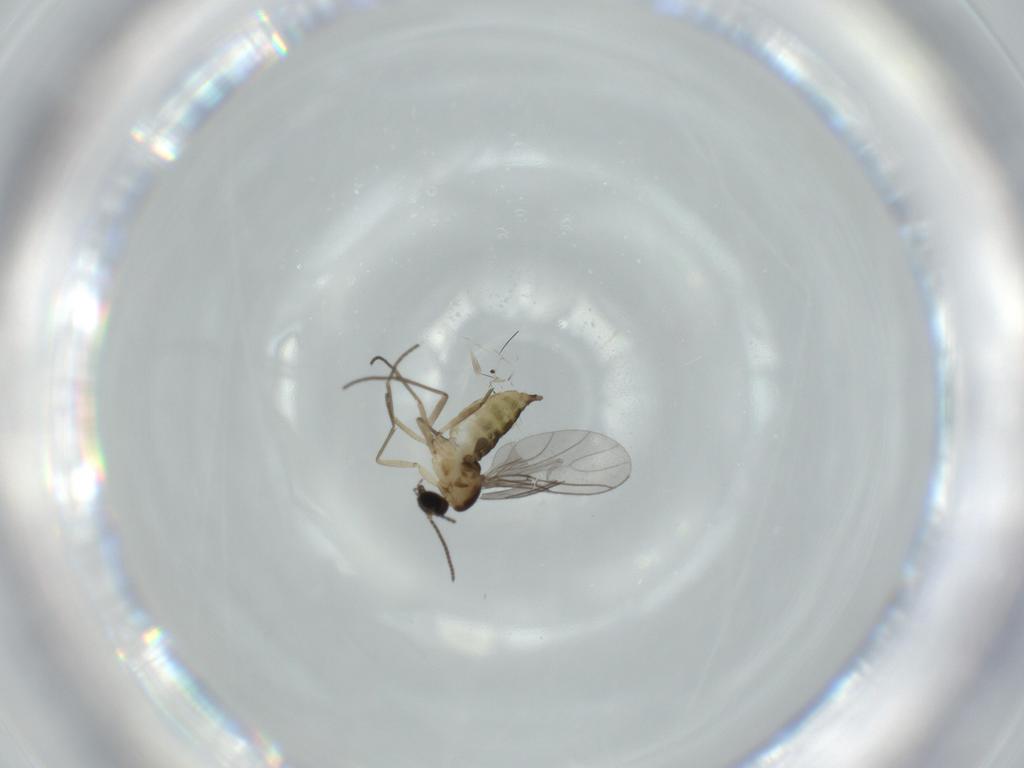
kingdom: Animalia
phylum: Arthropoda
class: Insecta
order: Diptera
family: Sciaridae
